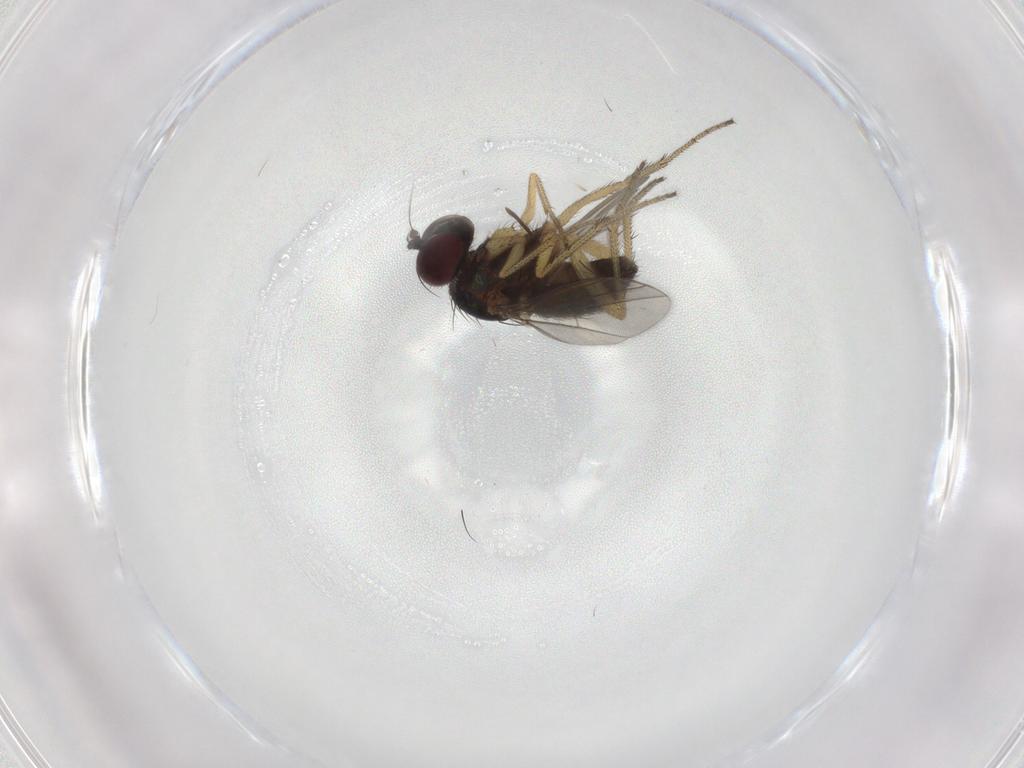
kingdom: Animalia
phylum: Arthropoda
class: Insecta
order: Diptera
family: Chironomidae
